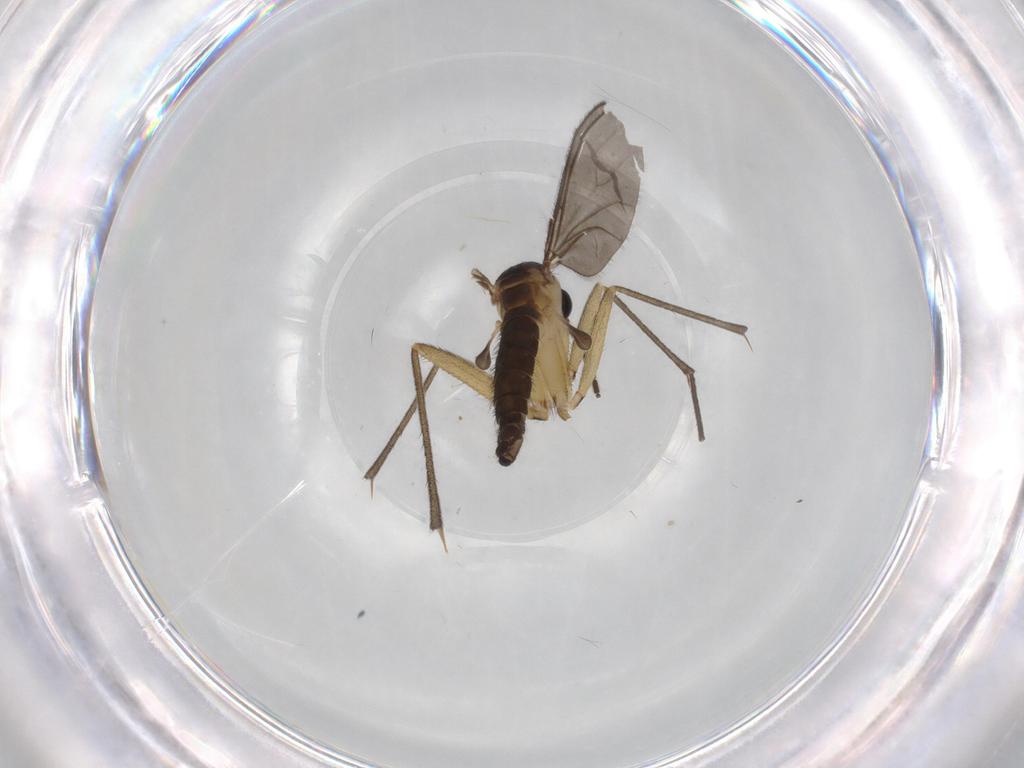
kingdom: Animalia
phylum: Arthropoda
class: Insecta
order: Diptera
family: Sciaridae
